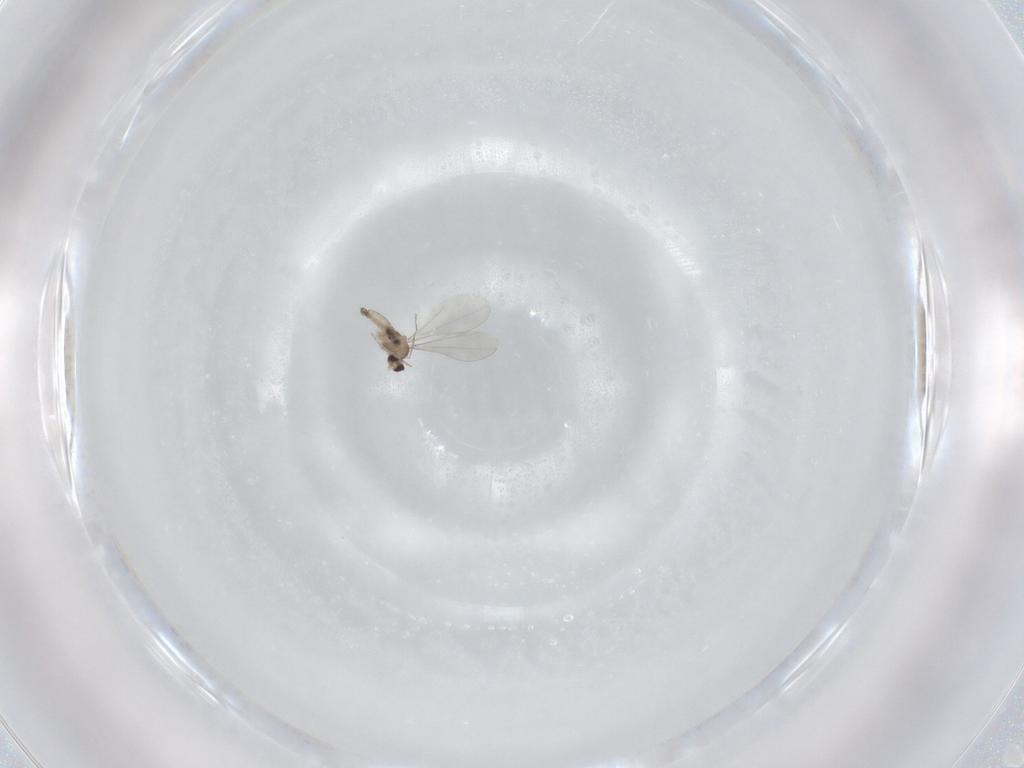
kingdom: Animalia
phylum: Arthropoda
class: Insecta
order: Diptera
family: Cecidomyiidae
